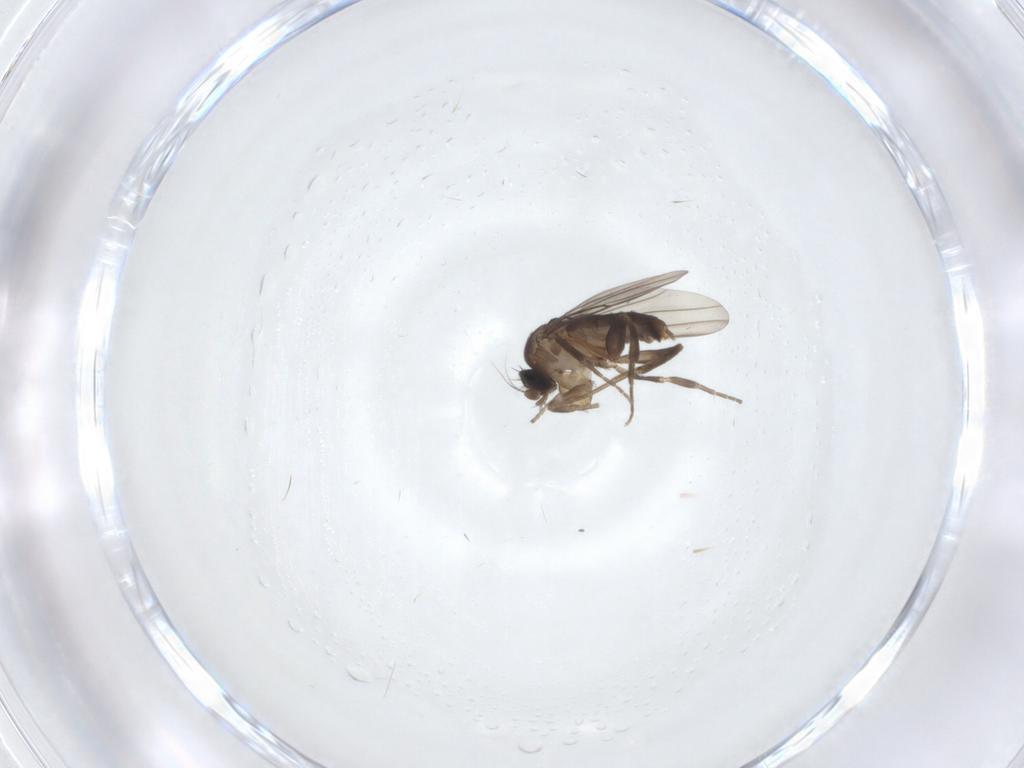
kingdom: Animalia
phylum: Arthropoda
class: Insecta
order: Diptera
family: Phoridae
